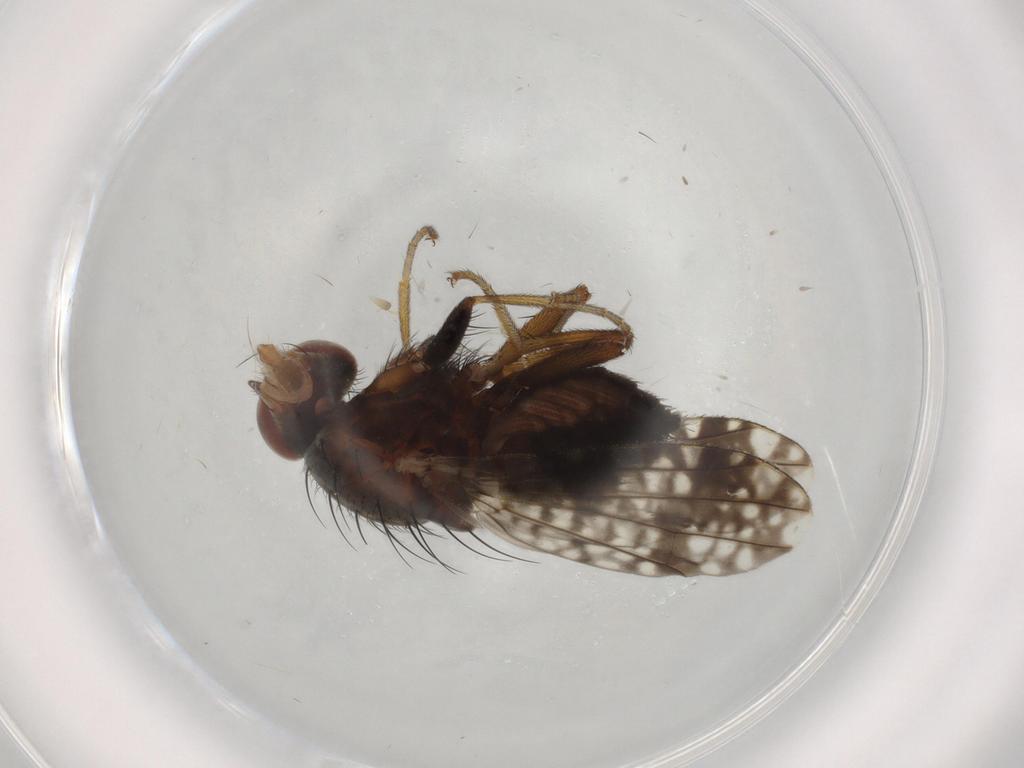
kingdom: Animalia
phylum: Arthropoda
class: Insecta
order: Diptera
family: Tephritidae
